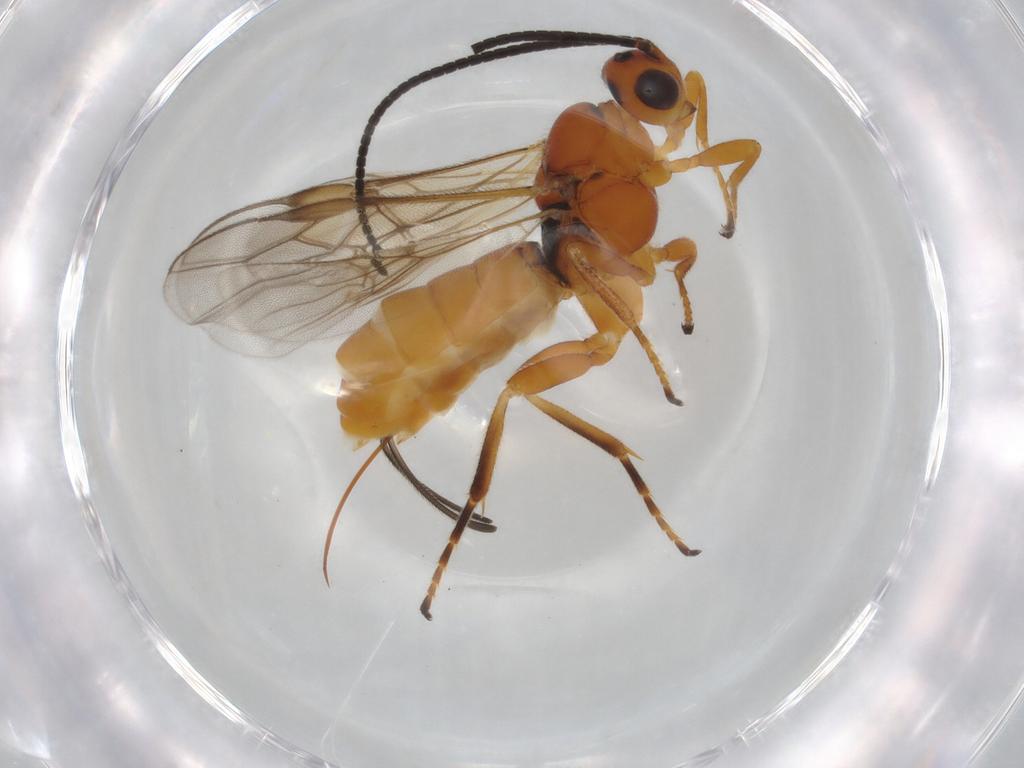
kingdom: Animalia
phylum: Arthropoda
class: Insecta
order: Hymenoptera
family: Braconidae
